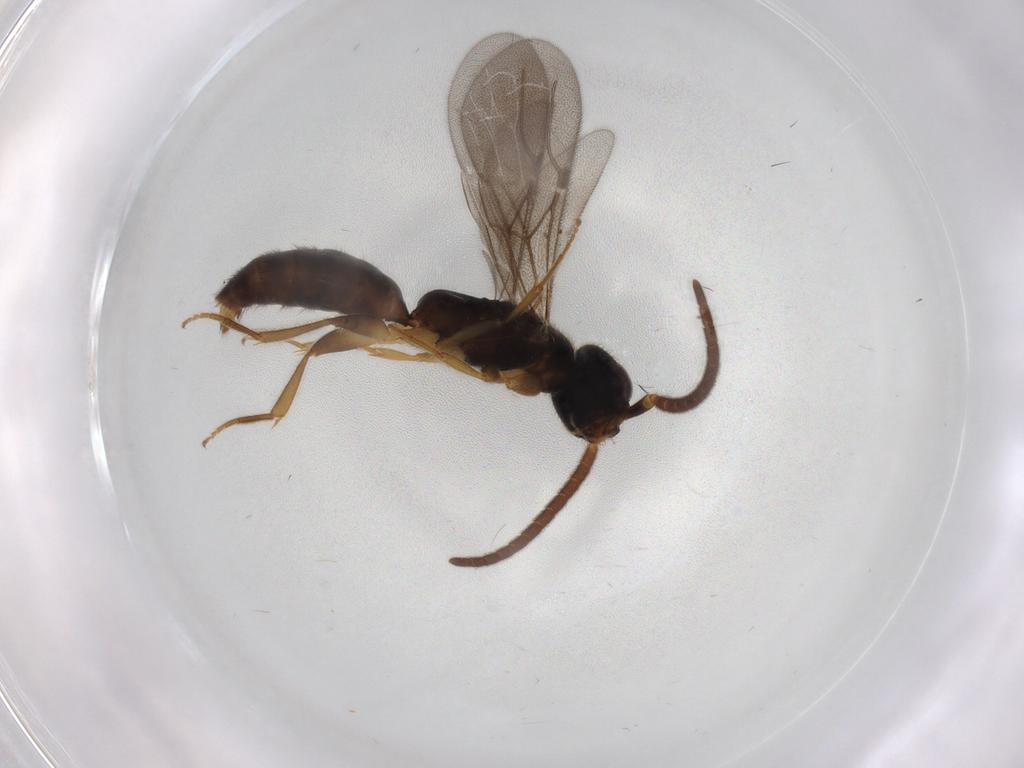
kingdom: Animalia
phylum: Arthropoda
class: Insecta
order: Hymenoptera
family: Bethylidae
